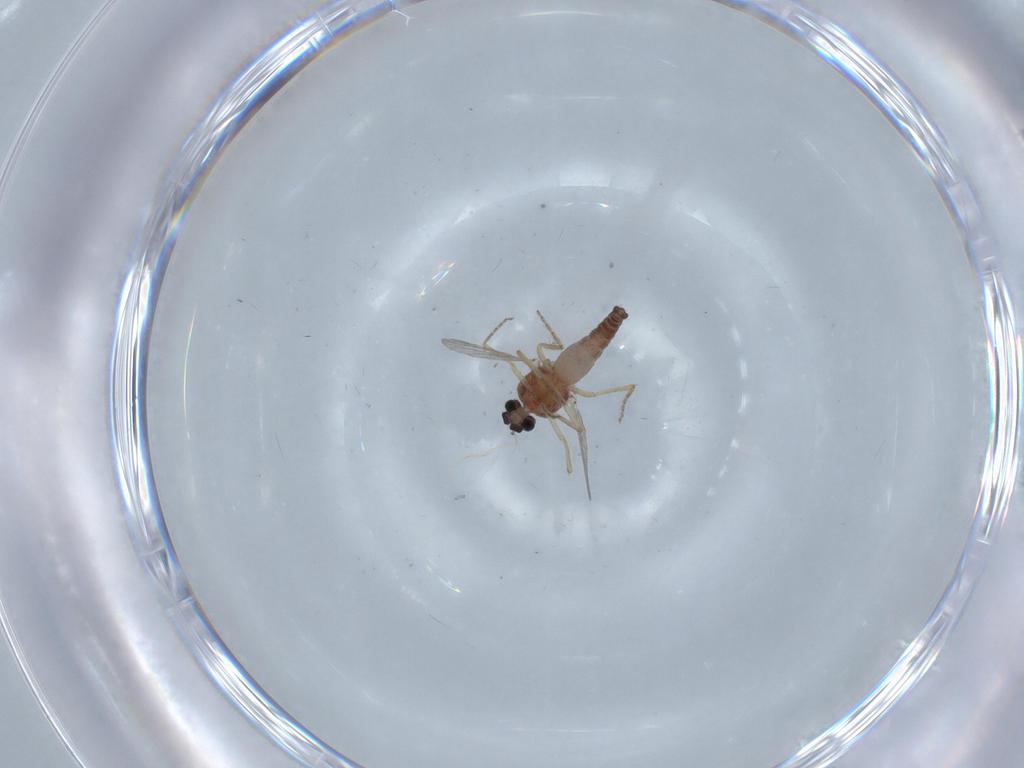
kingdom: Animalia
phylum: Arthropoda
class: Insecta
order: Diptera
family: Ceratopogonidae
